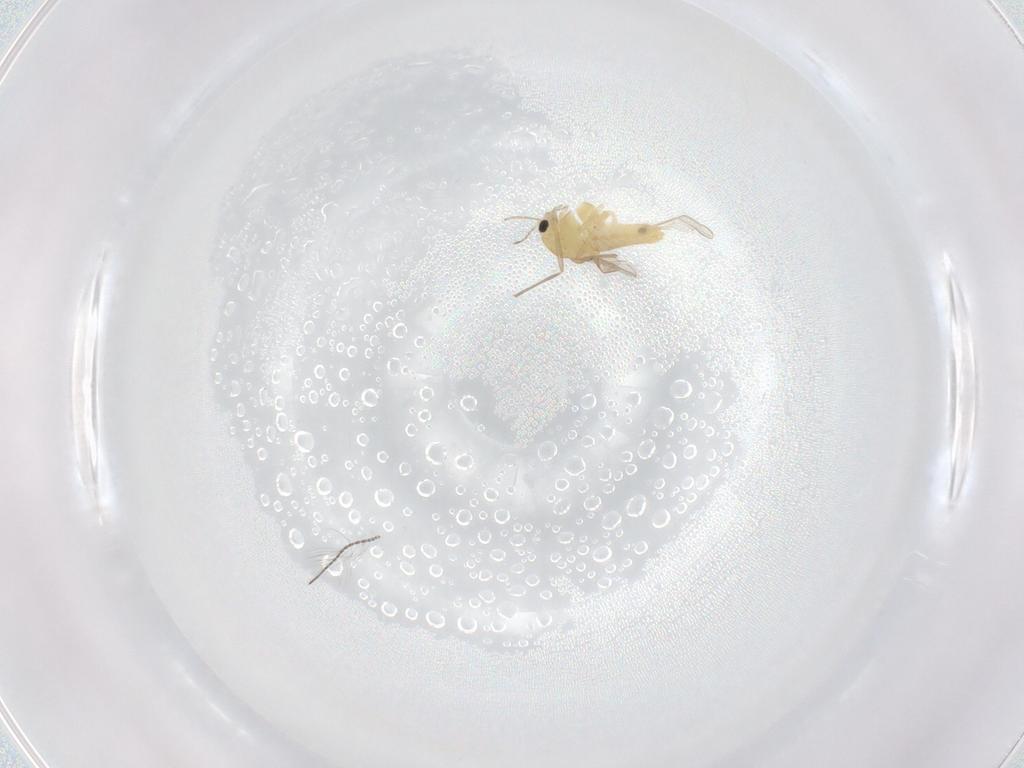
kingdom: Animalia
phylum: Arthropoda
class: Insecta
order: Diptera
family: Chironomidae
